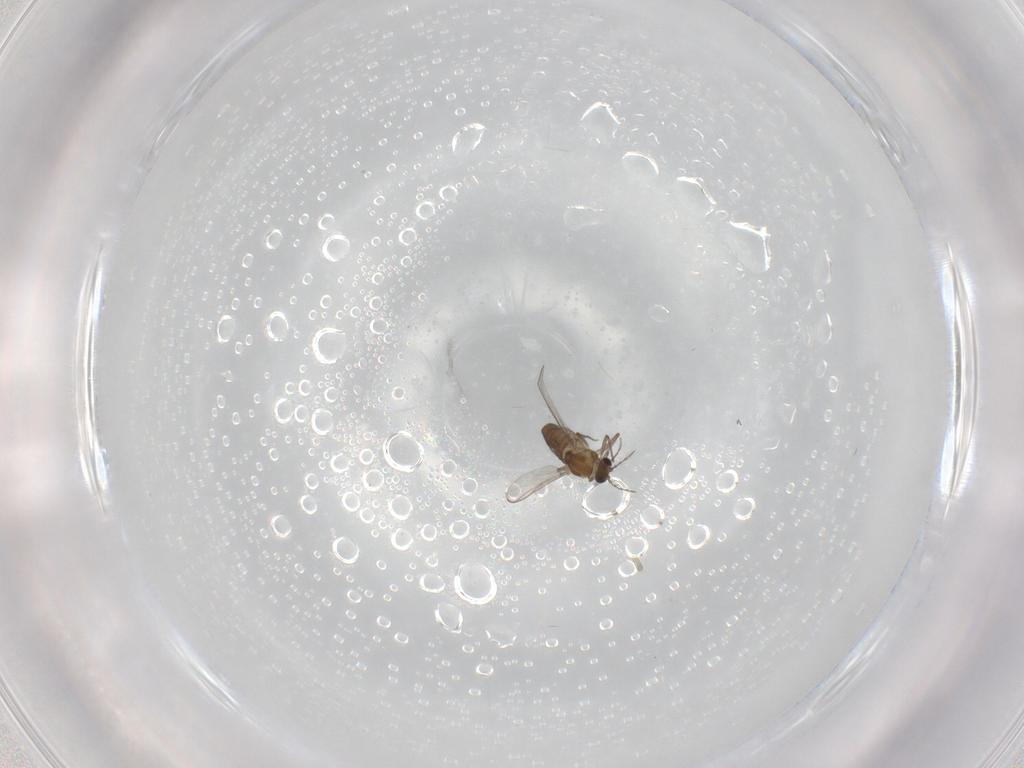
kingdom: Animalia
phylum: Arthropoda
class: Insecta
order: Diptera
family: Chironomidae
